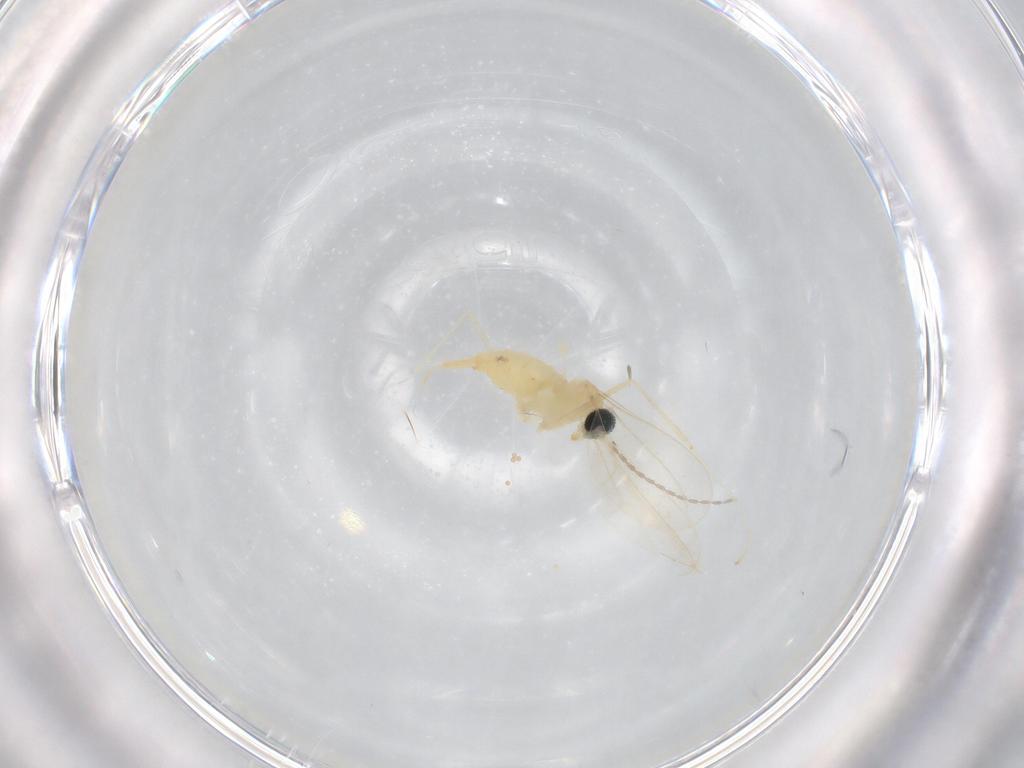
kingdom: Animalia
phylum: Arthropoda
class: Insecta
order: Diptera
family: Cecidomyiidae
